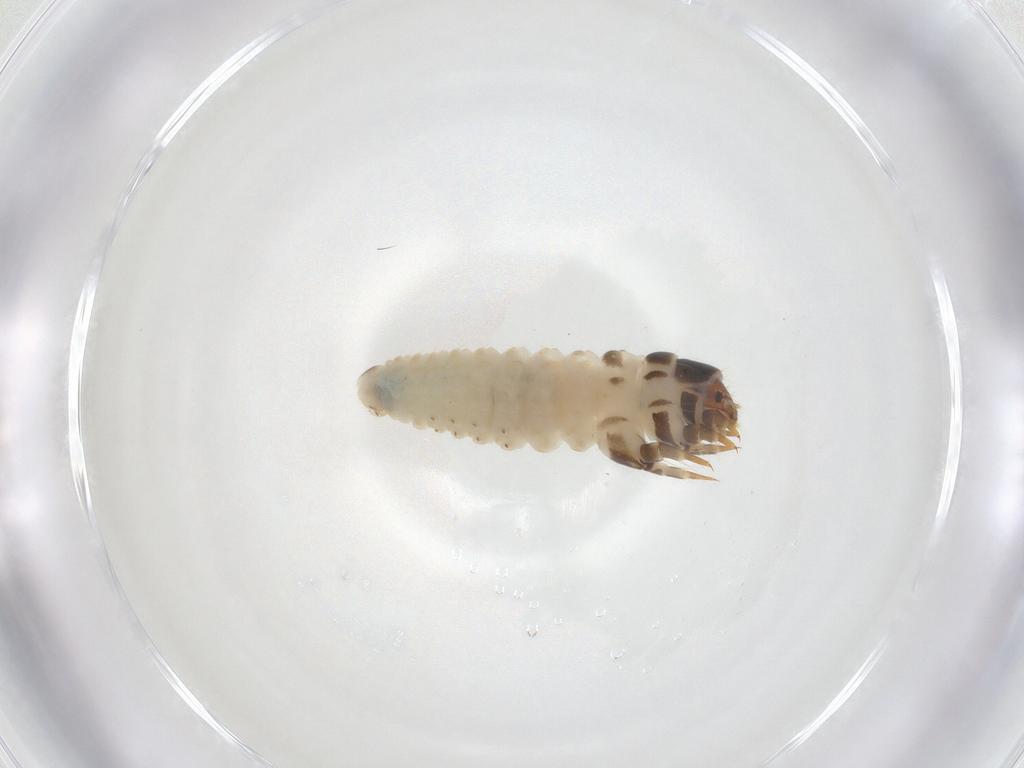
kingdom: Animalia
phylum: Arthropoda
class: Insecta
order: Lepidoptera
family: Psychidae
